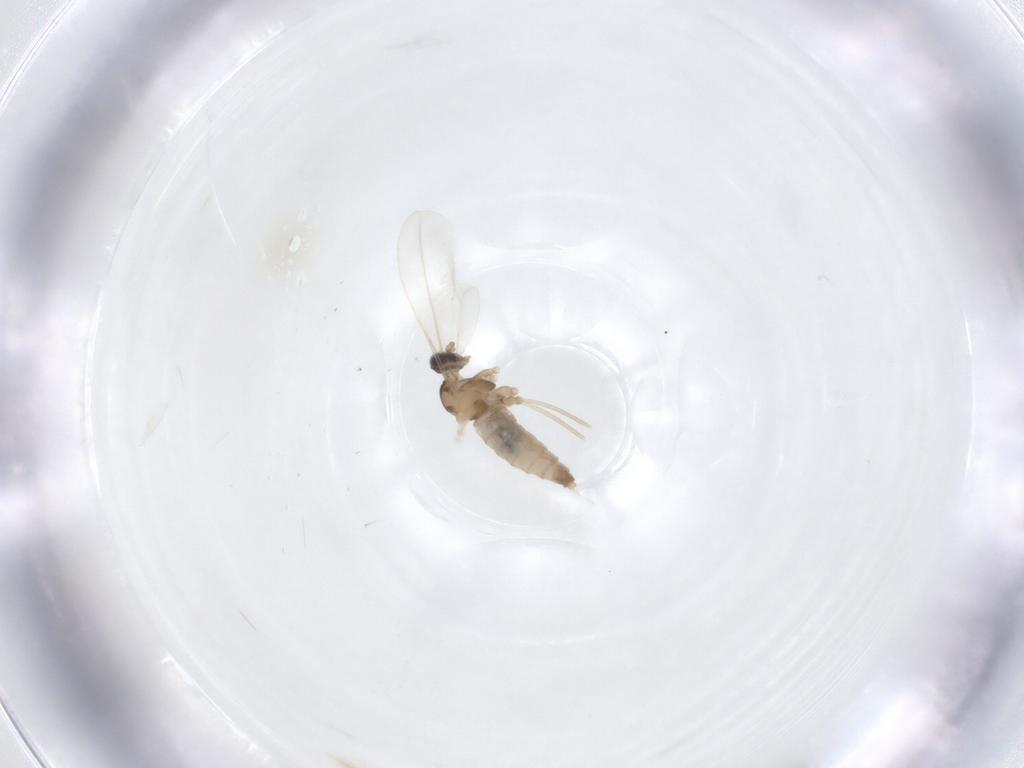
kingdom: Animalia
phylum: Arthropoda
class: Insecta
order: Diptera
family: Cecidomyiidae
